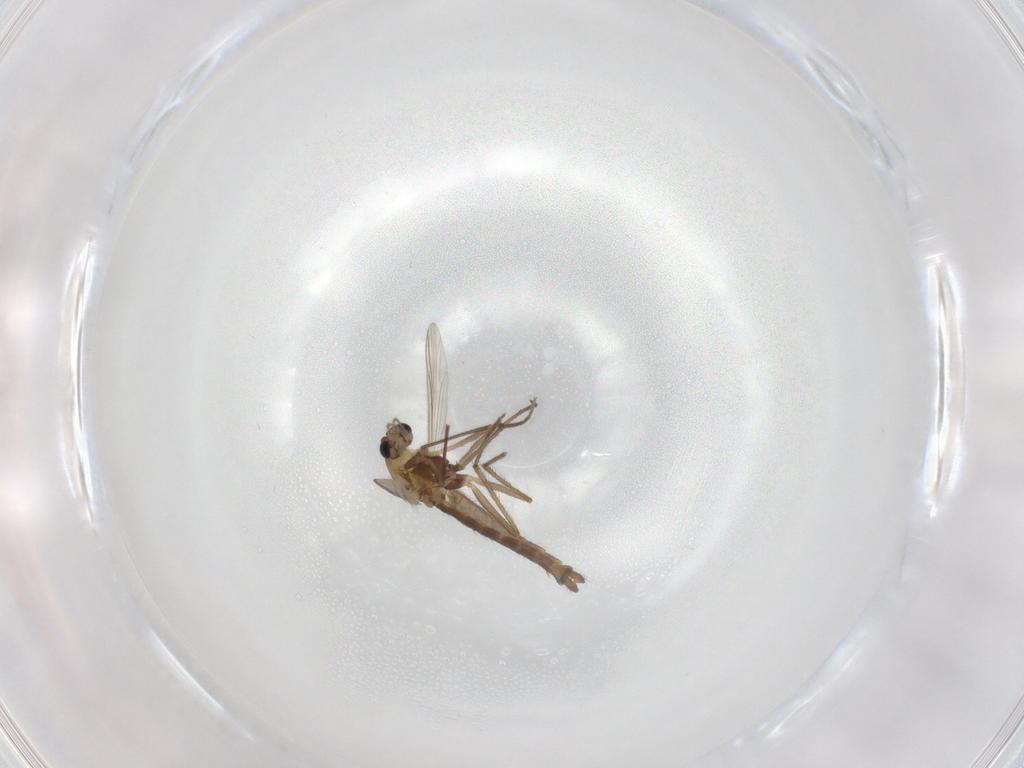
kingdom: Animalia
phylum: Arthropoda
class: Insecta
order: Diptera
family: Chironomidae
